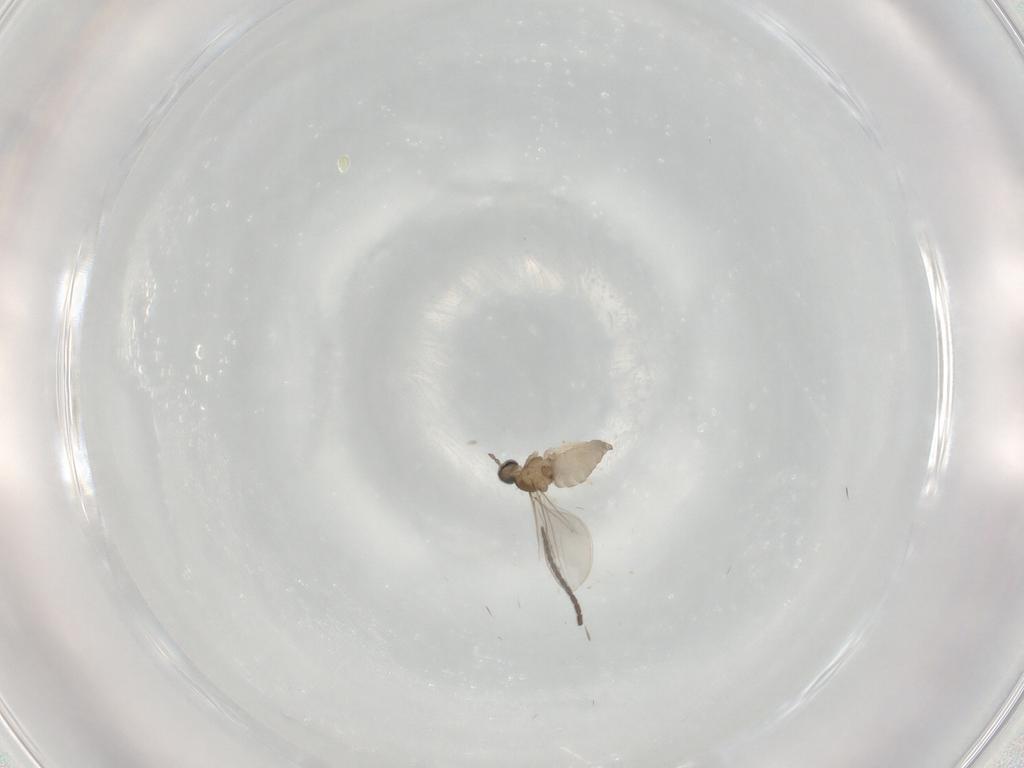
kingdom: Animalia
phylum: Arthropoda
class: Insecta
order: Diptera
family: Sciaridae
